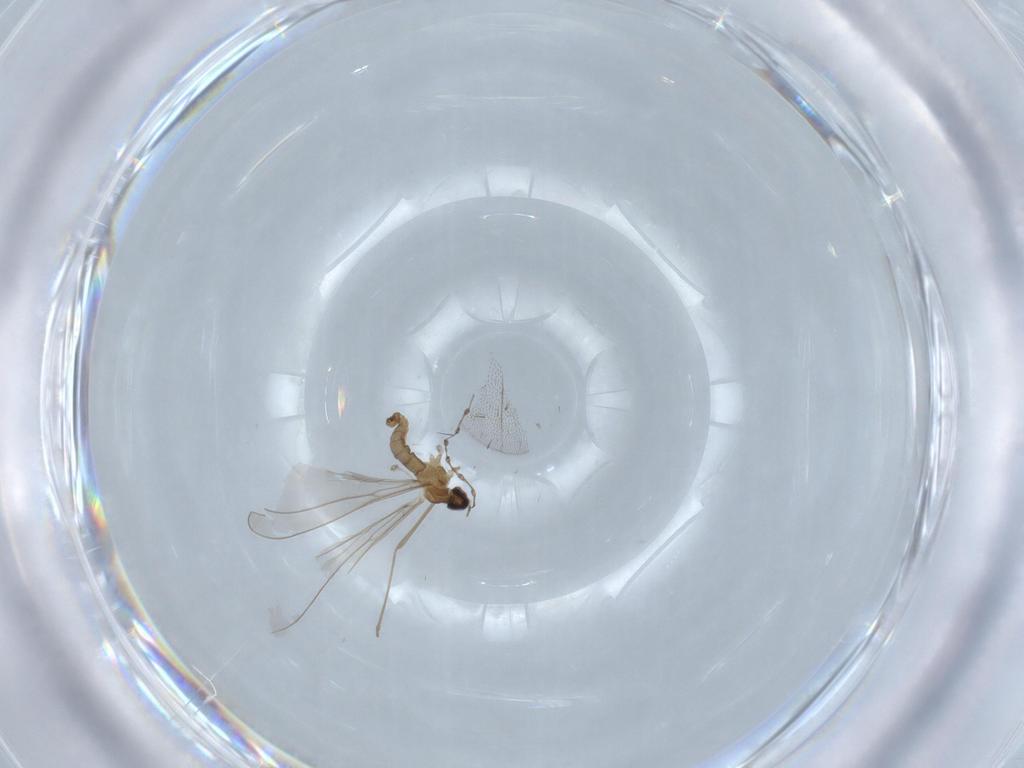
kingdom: Animalia
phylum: Arthropoda
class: Insecta
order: Diptera
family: Cecidomyiidae
